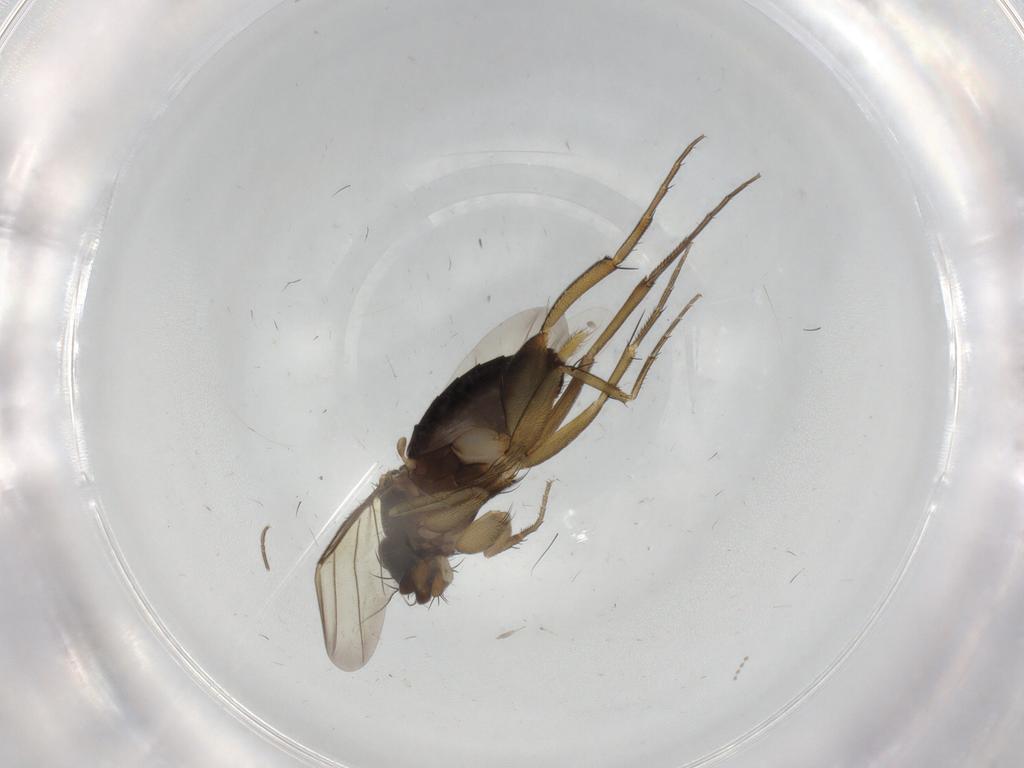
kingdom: Animalia
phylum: Arthropoda
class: Insecta
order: Diptera
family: Phoridae
